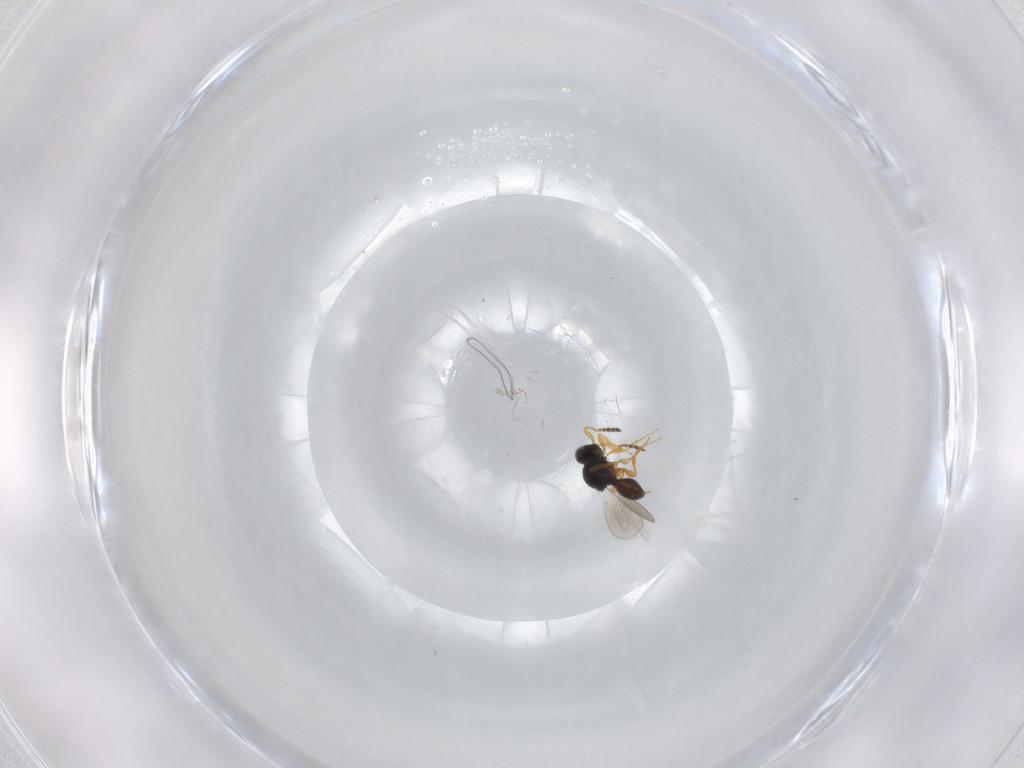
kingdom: Animalia
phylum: Arthropoda
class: Insecta
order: Hymenoptera
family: Platygastridae
